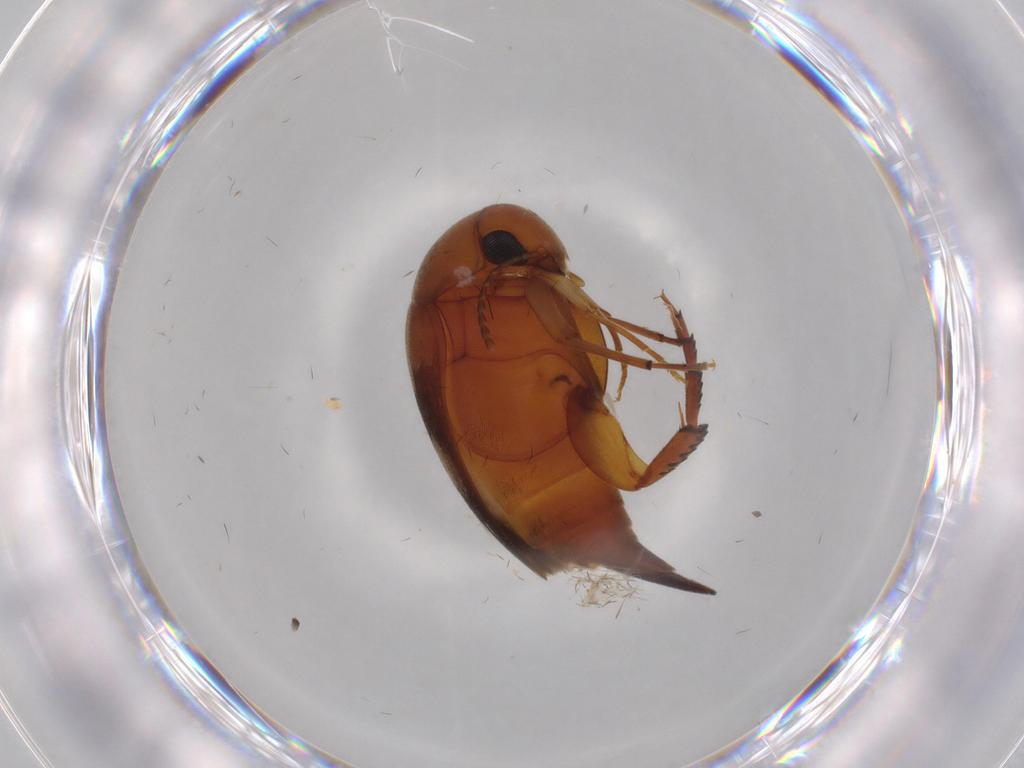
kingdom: Animalia
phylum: Arthropoda
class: Insecta
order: Coleoptera
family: Mordellidae
